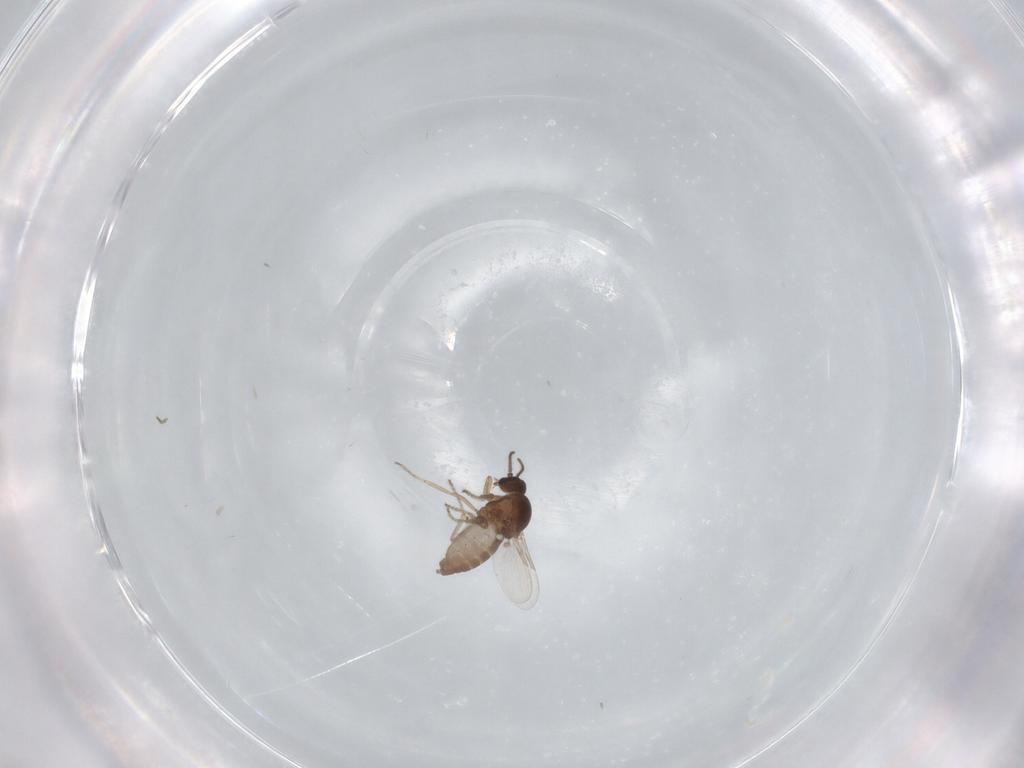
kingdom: Animalia
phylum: Arthropoda
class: Insecta
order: Diptera
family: Ceratopogonidae
